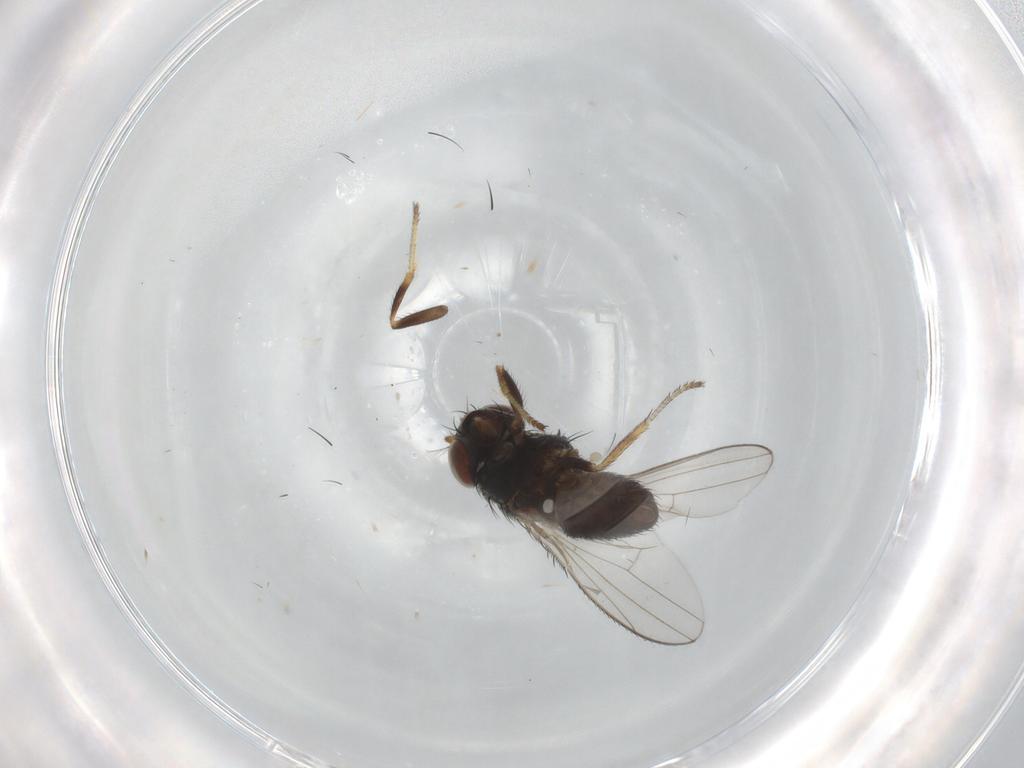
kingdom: Animalia
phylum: Arthropoda
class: Insecta
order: Diptera
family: Ephydridae
